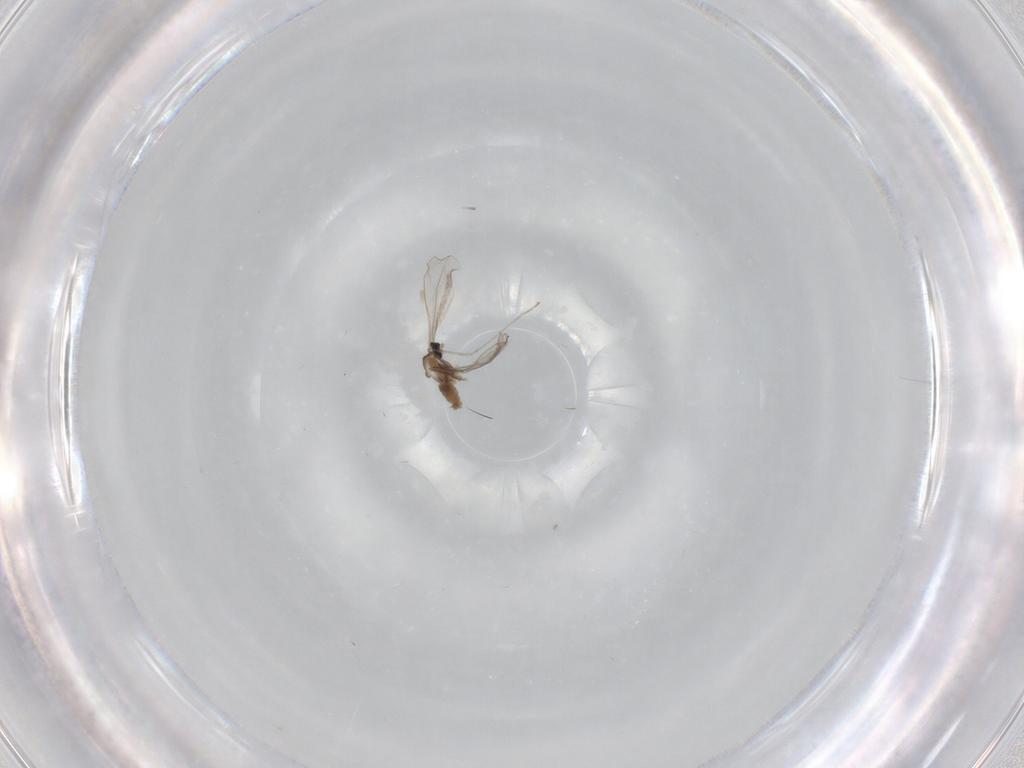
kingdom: Animalia
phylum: Arthropoda
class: Insecta
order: Diptera
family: Cecidomyiidae
